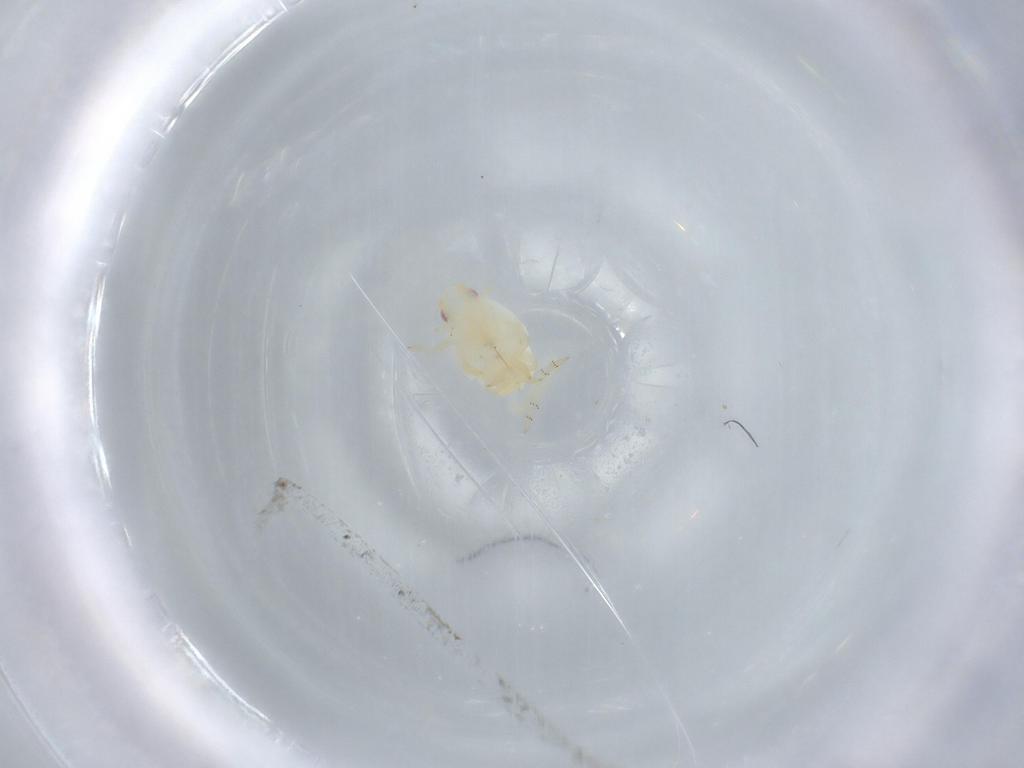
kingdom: Animalia
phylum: Arthropoda
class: Insecta
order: Hemiptera
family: Flatidae
